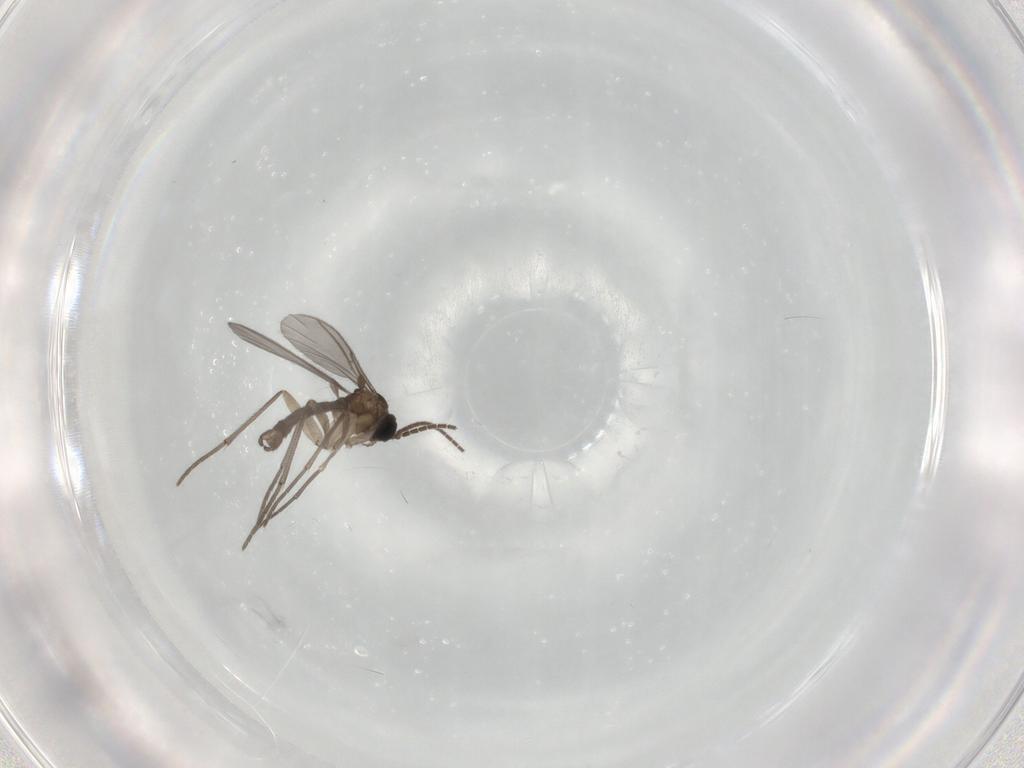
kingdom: Animalia
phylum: Arthropoda
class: Insecta
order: Diptera
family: Sciaridae
